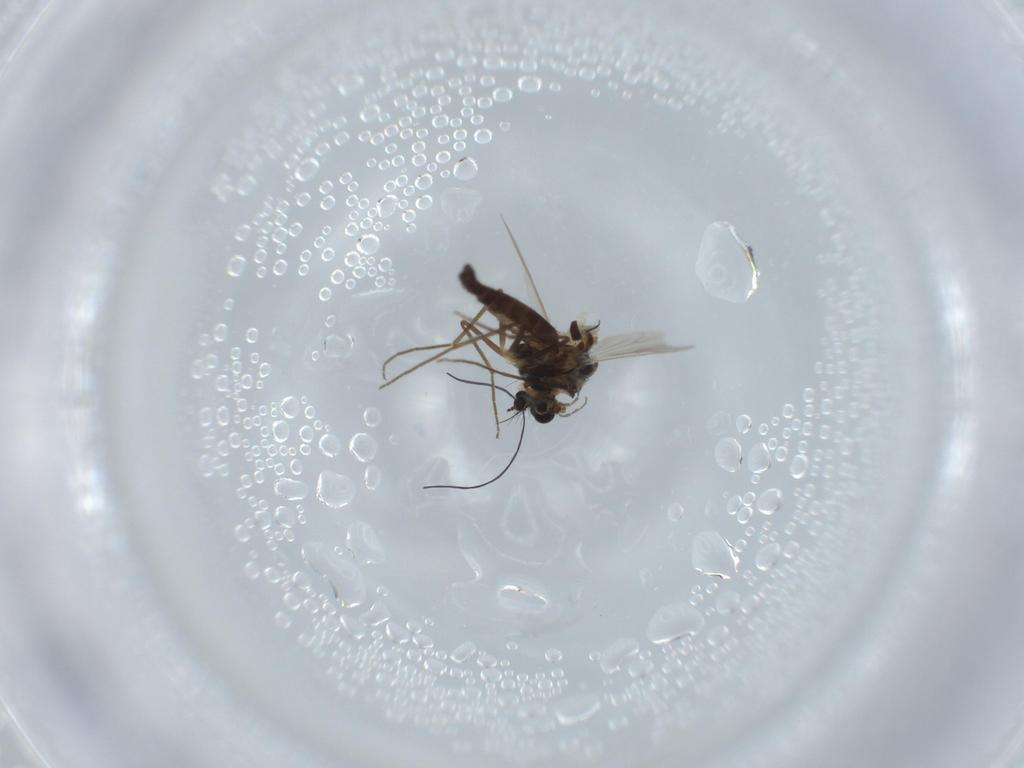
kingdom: Animalia
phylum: Arthropoda
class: Insecta
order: Diptera
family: Chironomidae
